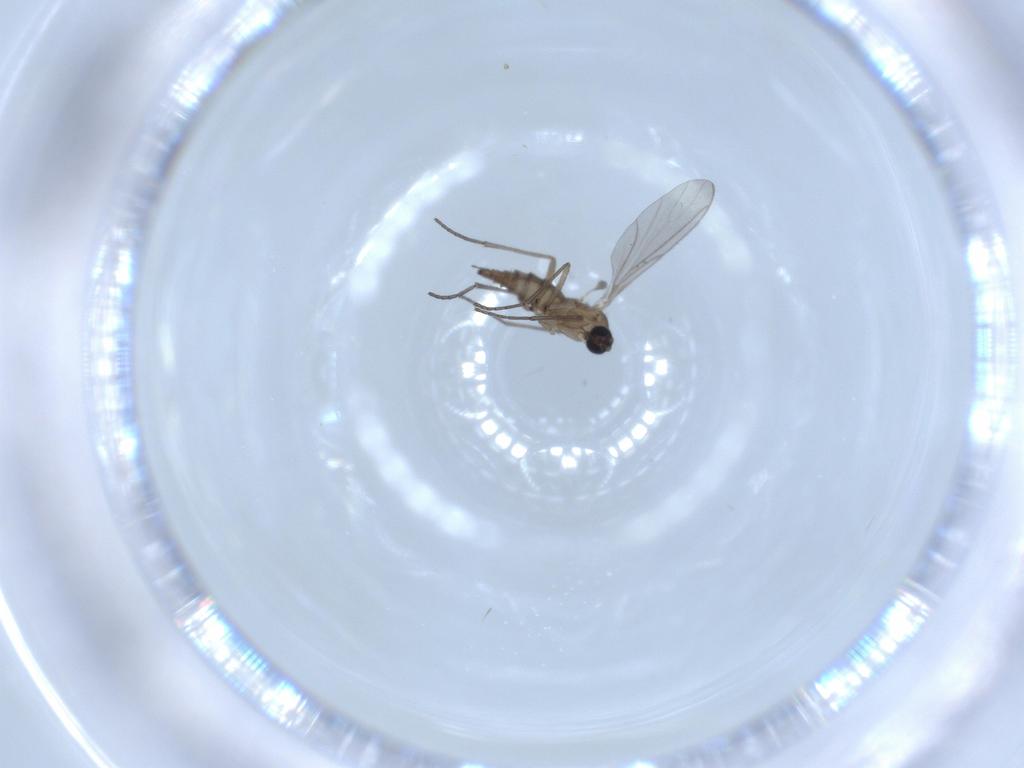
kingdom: Animalia
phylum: Arthropoda
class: Insecta
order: Diptera
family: Cecidomyiidae
